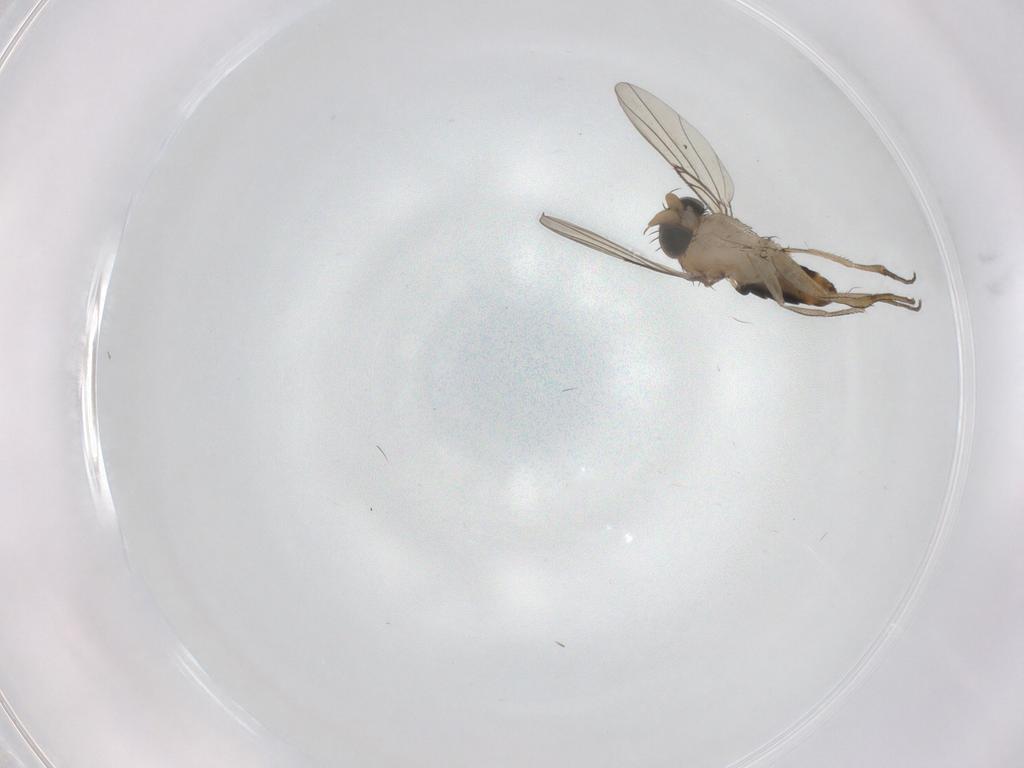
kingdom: Animalia
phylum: Arthropoda
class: Insecta
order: Diptera
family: Phoridae
